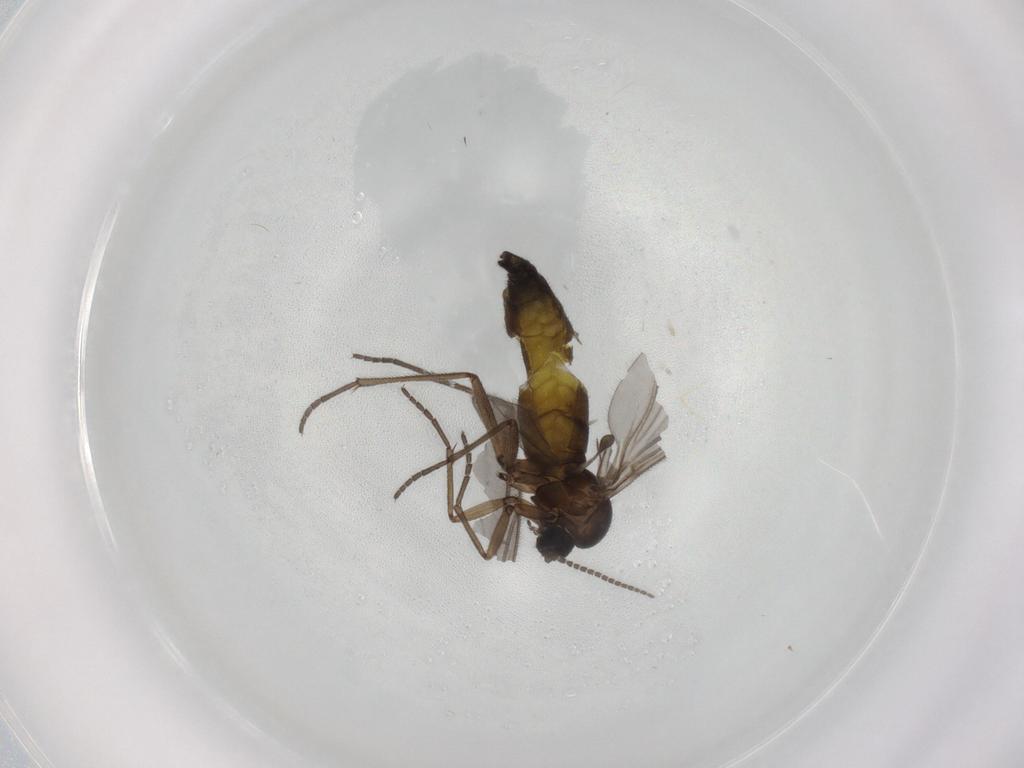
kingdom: Animalia
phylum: Arthropoda
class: Insecta
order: Diptera
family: Sciaridae
